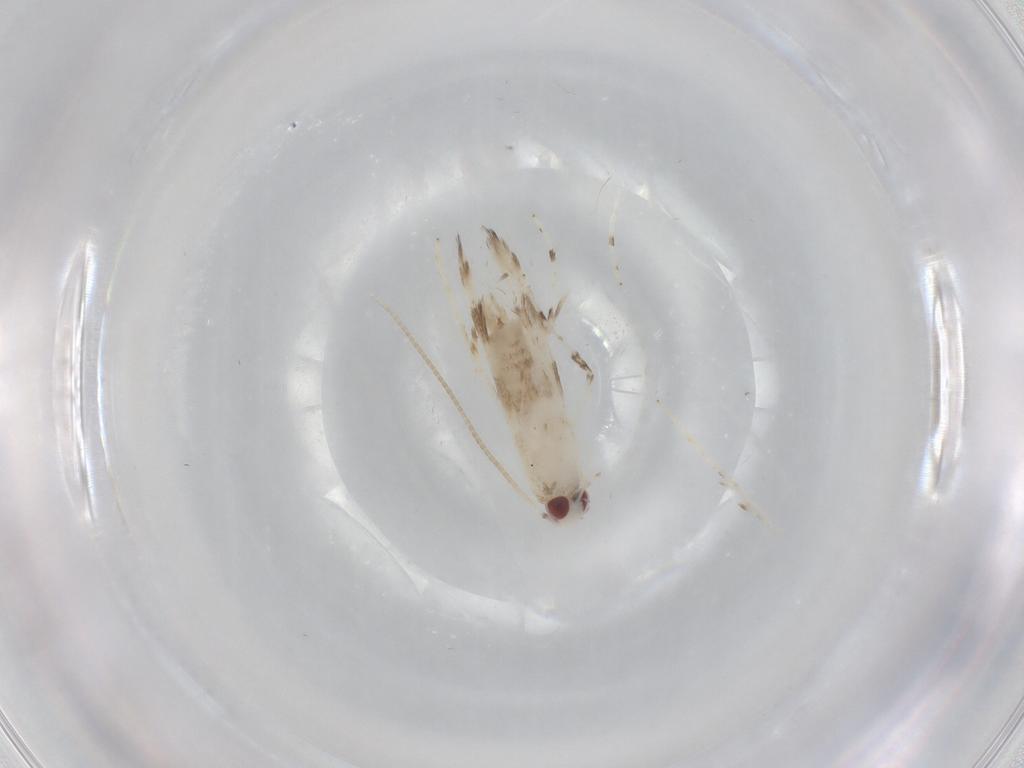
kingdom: Animalia
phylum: Arthropoda
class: Insecta
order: Lepidoptera
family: Gracillariidae
